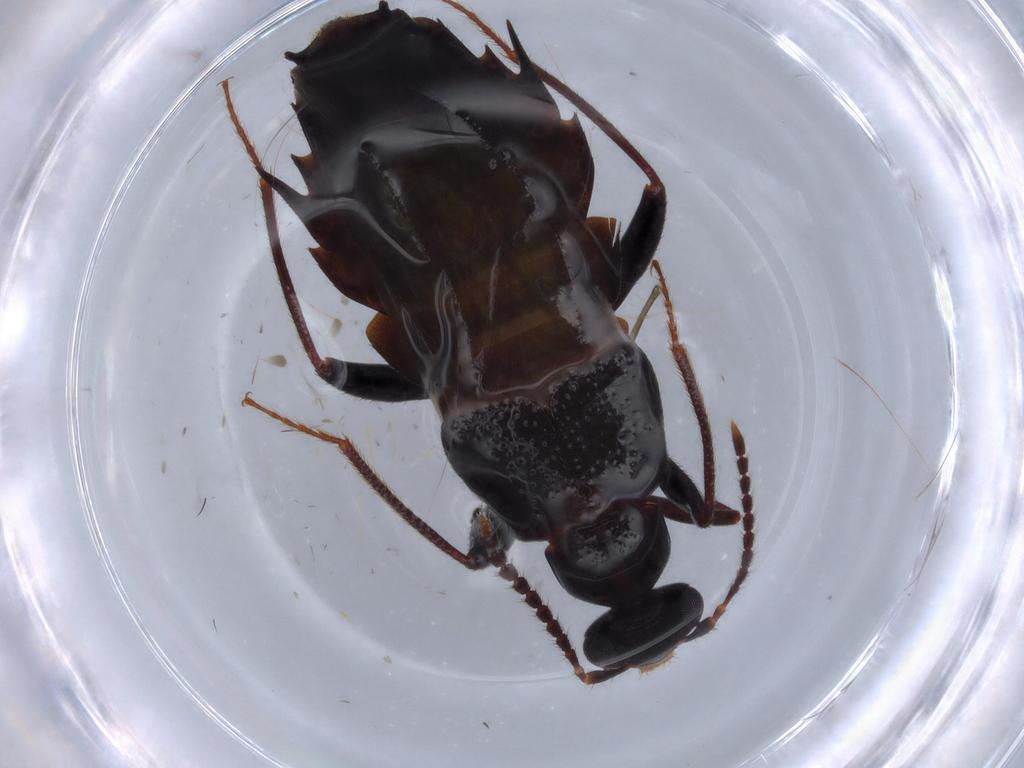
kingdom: Animalia
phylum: Arthropoda
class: Insecta
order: Coleoptera
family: Staphylinidae
